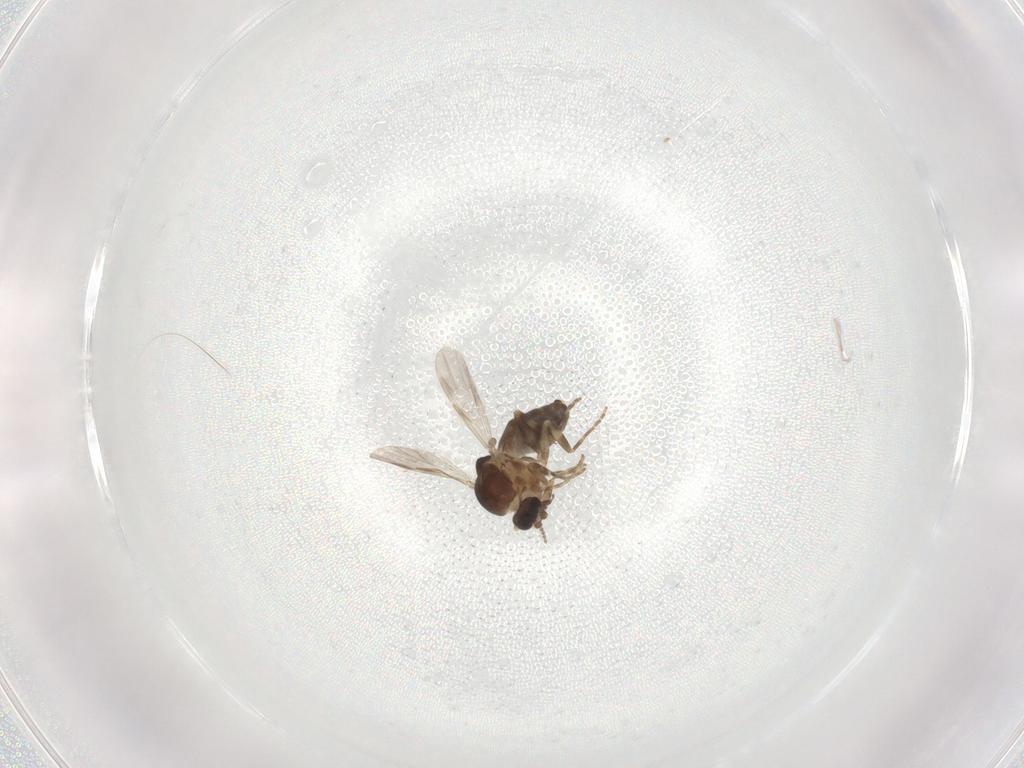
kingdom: Animalia
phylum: Arthropoda
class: Insecta
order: Diptera
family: Ceratopogonidae
